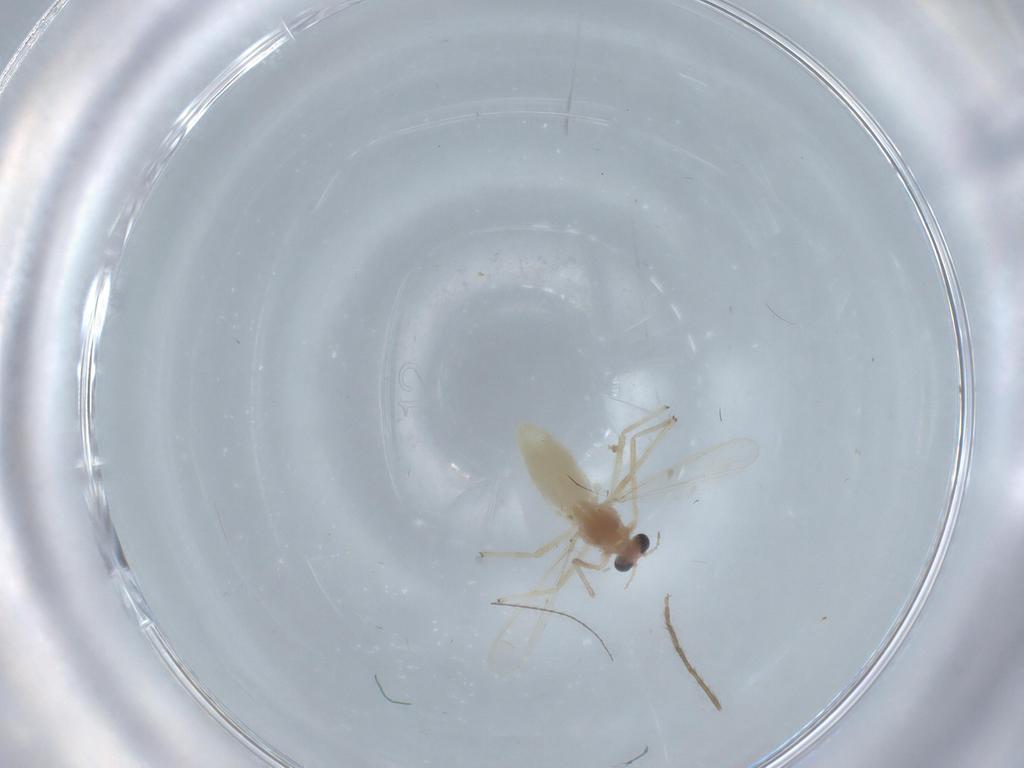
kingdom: Animalia
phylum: Arthropoda
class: Insecta
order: Diptera
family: Chironomidae
